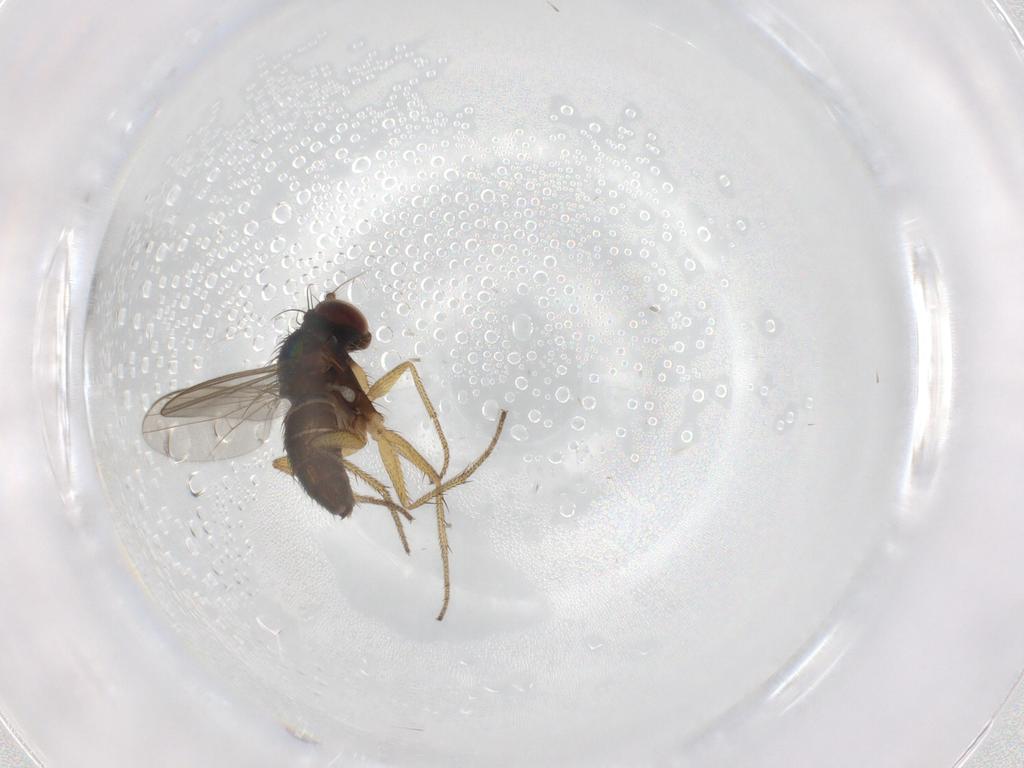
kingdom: Animalia
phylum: Arthropoda
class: Insecta
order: Diptera
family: Dolichopodidae
